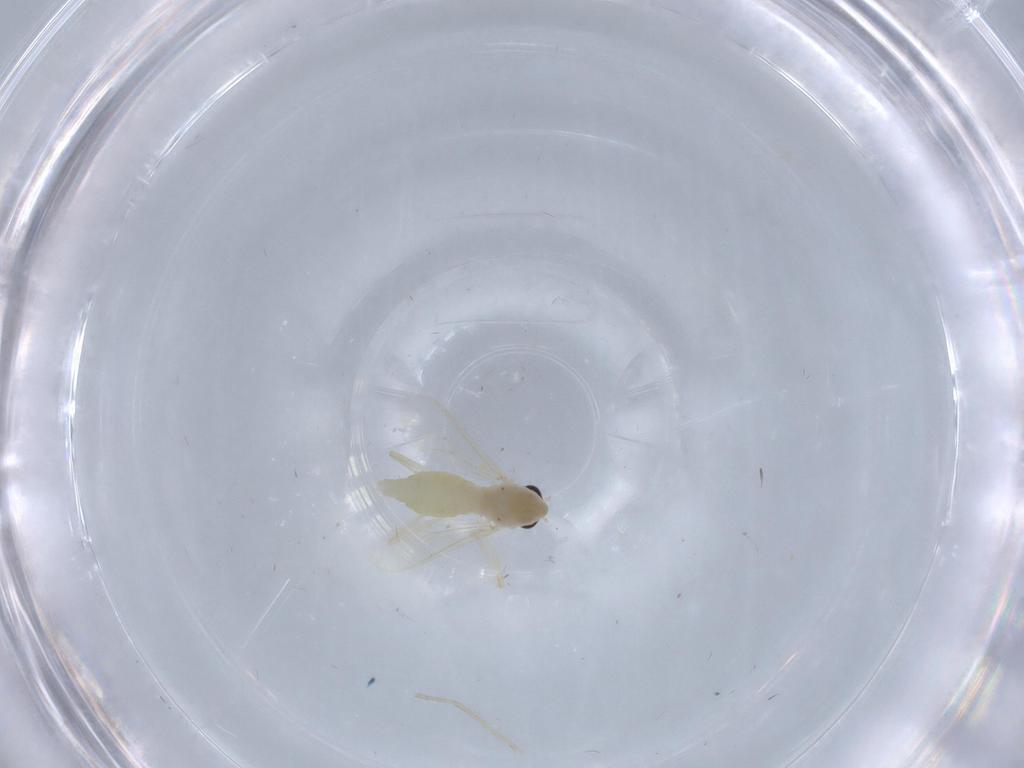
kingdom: Animalia
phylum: Arthropoda
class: Insecta
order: Diptera
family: Chironomidae
